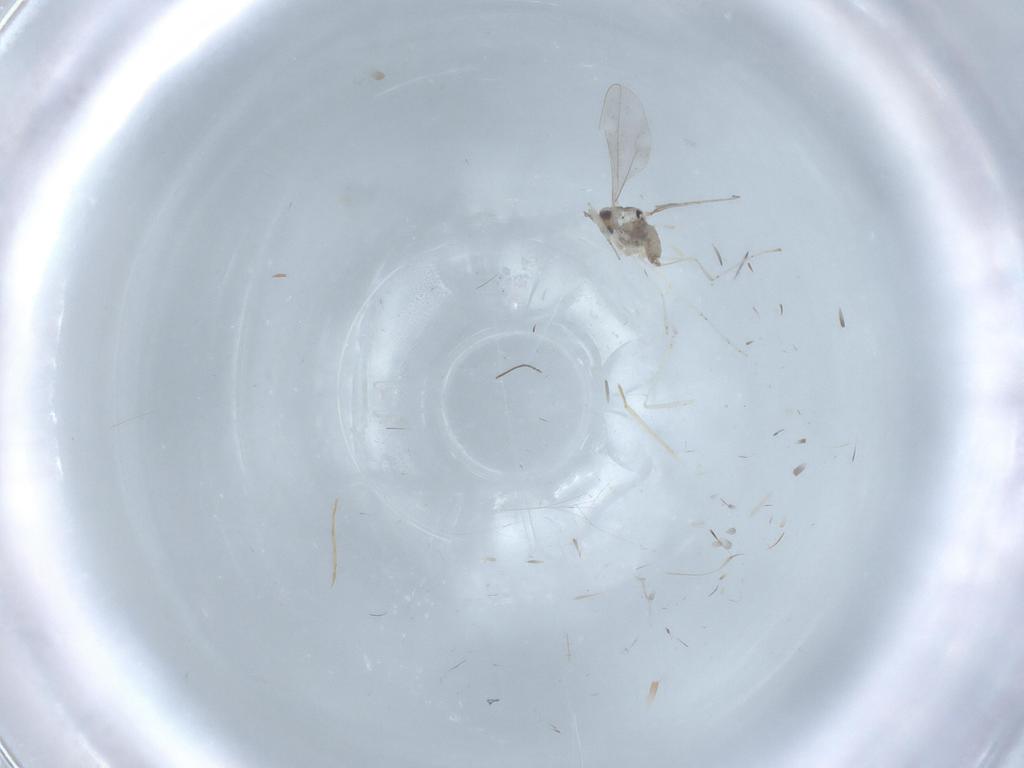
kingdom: Animalia
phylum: Arthropoda
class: Insecta
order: Diptera
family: Cecidomyiidae
